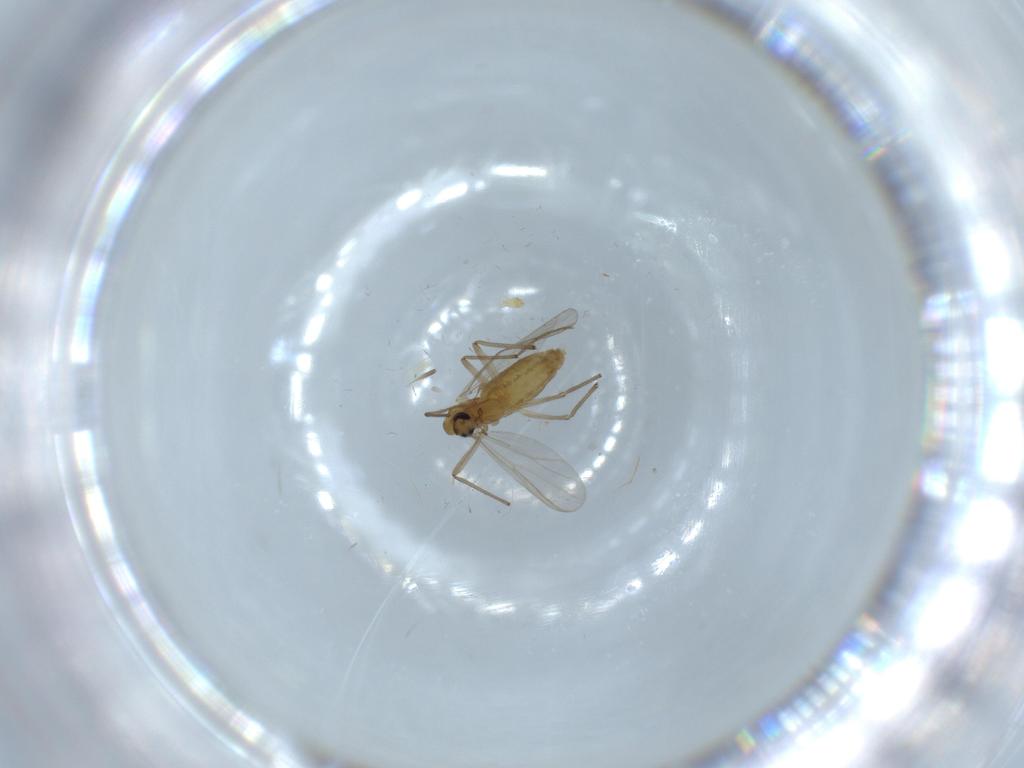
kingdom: Animalia
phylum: Arthropoda
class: Insecta
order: Diptera
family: Chironomidae
